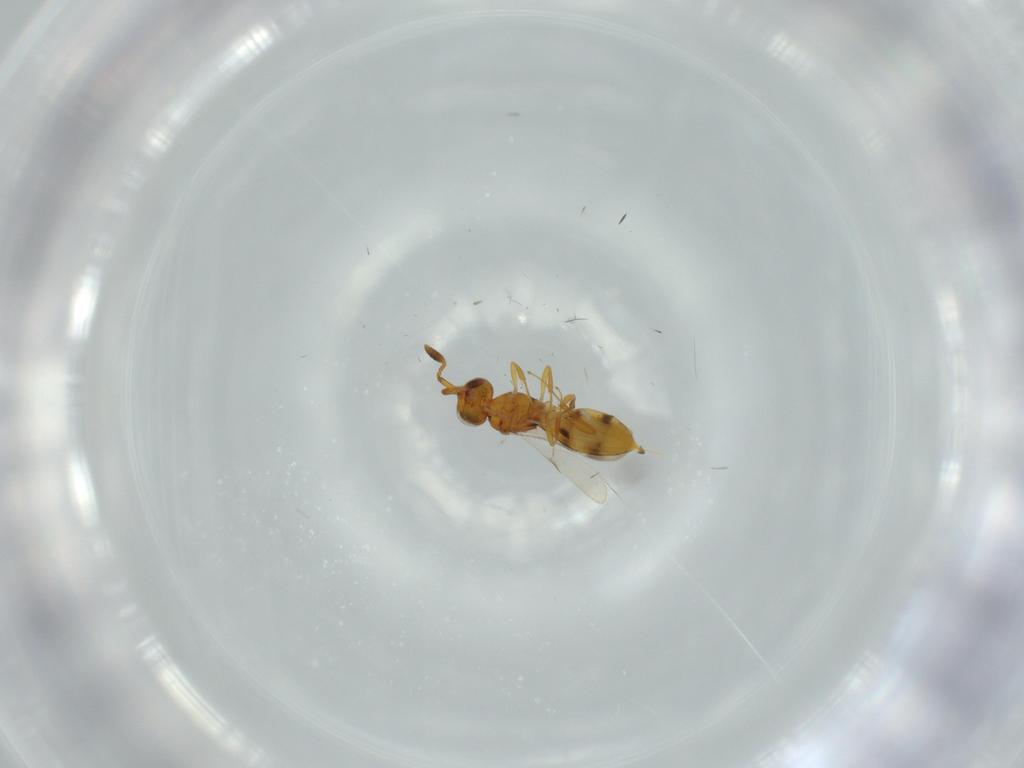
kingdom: Animalia
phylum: Arthropoda
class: Insecta
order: Hymenoptera
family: Scelionidae
